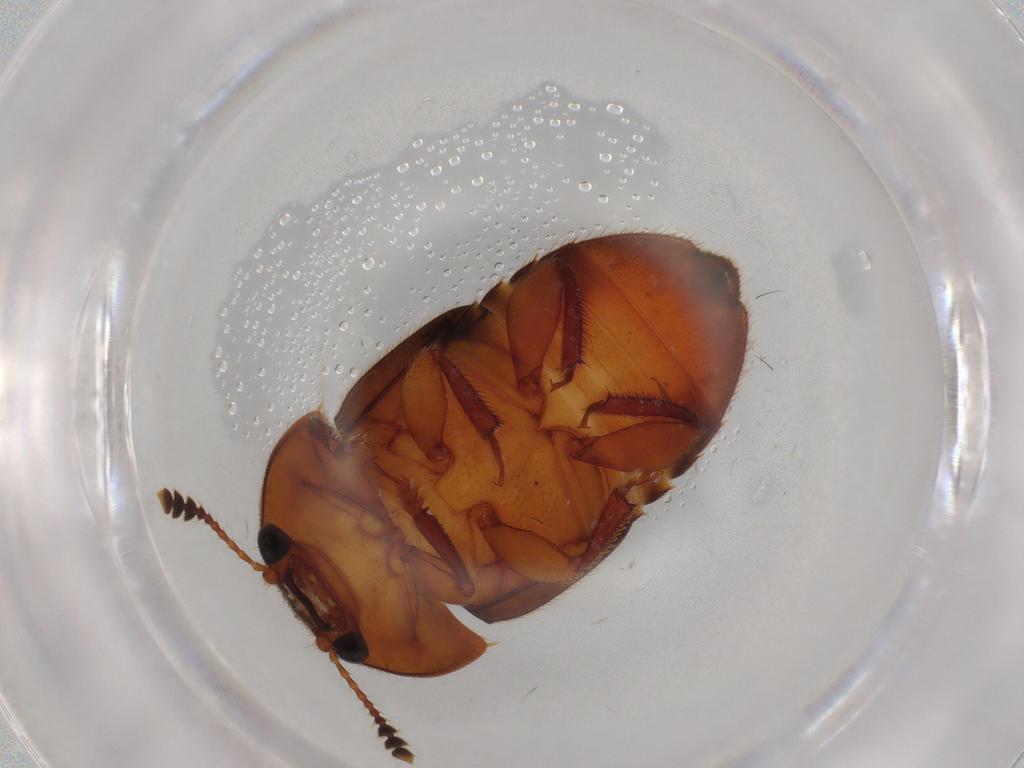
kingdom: Animalia
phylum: Arthropoda
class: Insecta
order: Coleoptera
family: Nitidulidae
